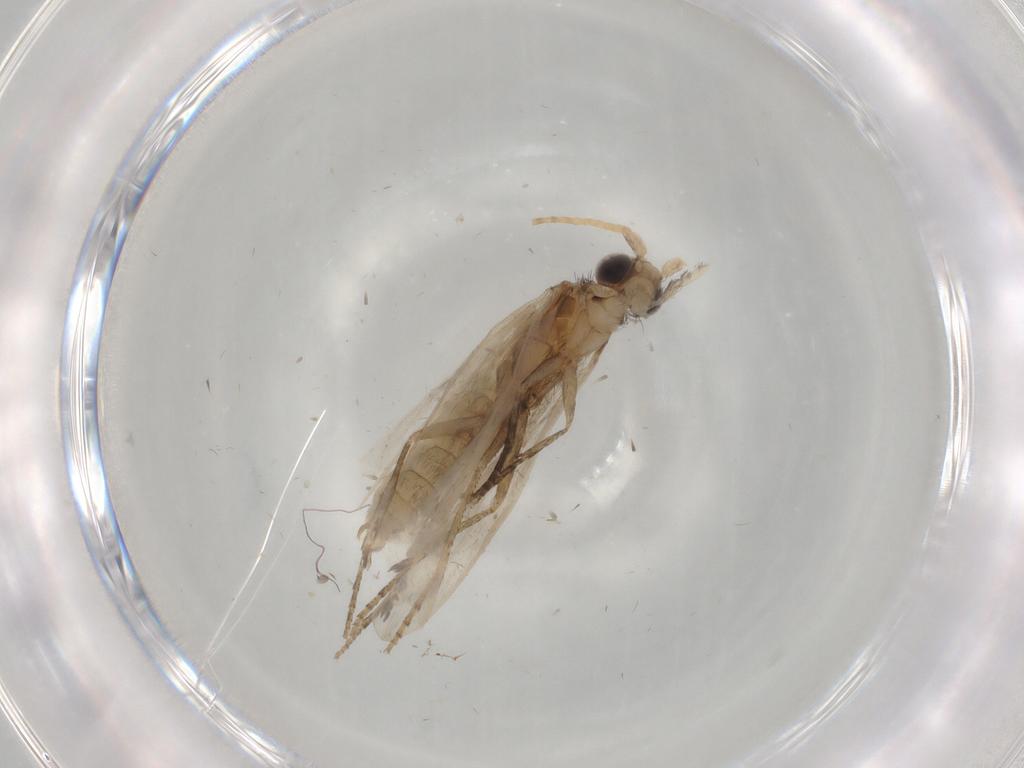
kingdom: Animalia
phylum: Arthropoda
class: Insecta
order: Trichoptera
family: Helicopsychidae
